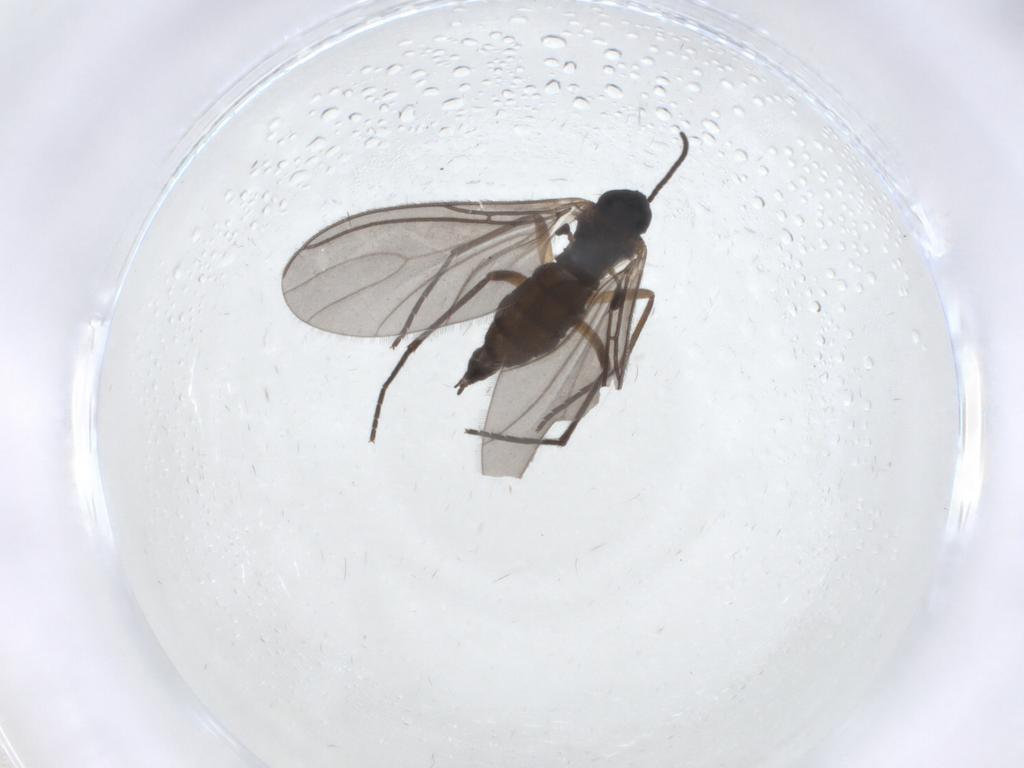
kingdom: Animalia
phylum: Arthropoda
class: Insecta
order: Diptera
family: Sciaridae
